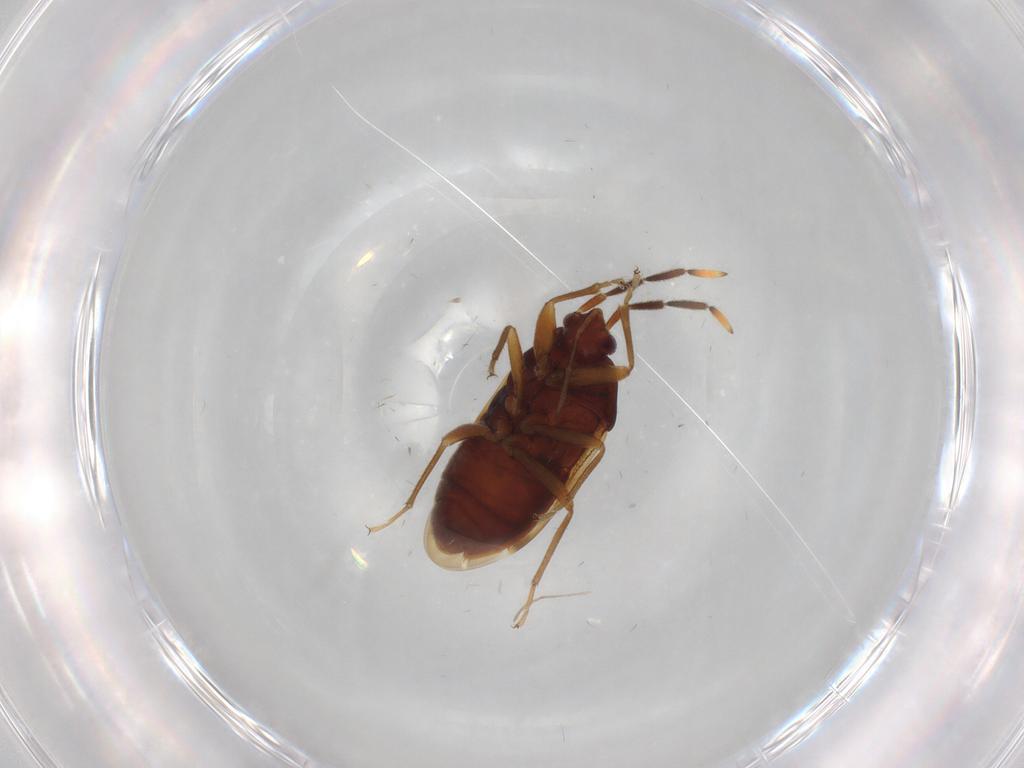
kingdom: Animalia
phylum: Arthropoda
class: Insecta
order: Hemiptera
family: Rhyparochromidae
